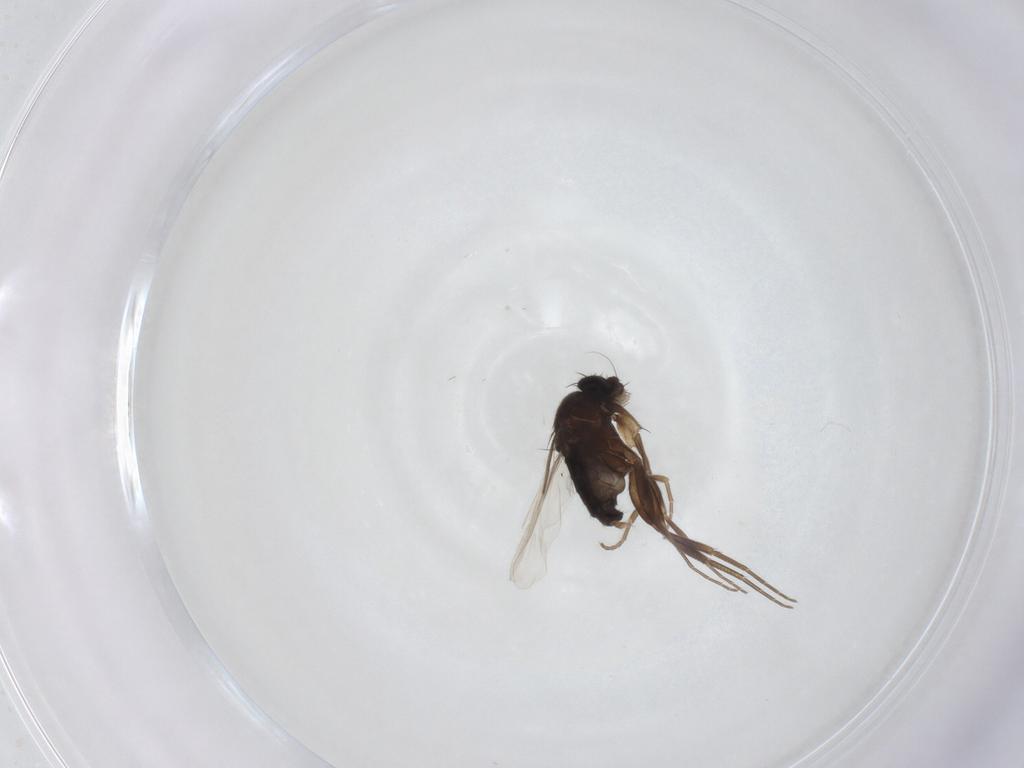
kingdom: Animalia
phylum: Arthropoda
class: Insecta
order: Diptera
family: Phoridae
